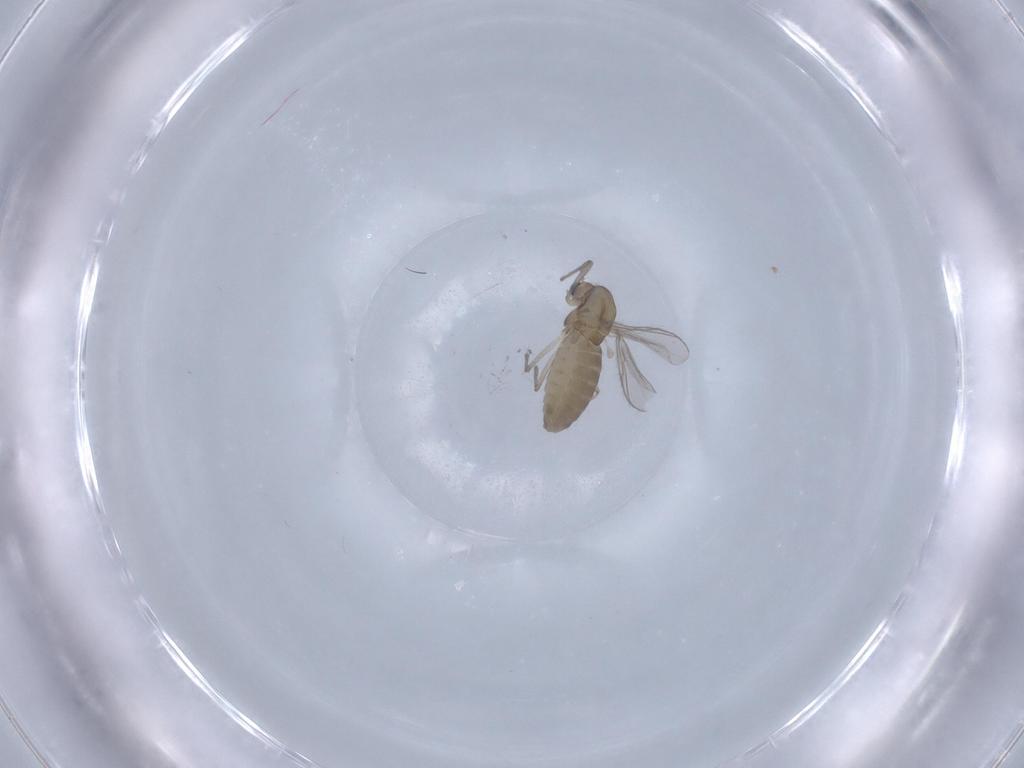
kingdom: Animalia
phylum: Arthropoda
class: Insecta
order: Diptera
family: Chironomidae
